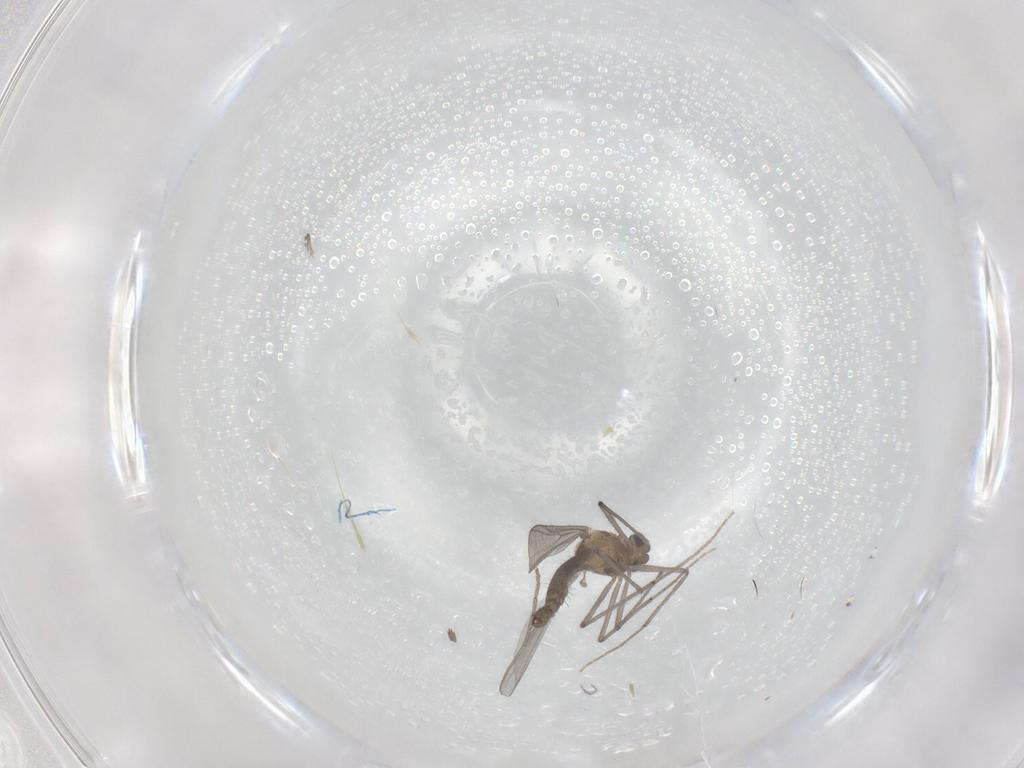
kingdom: Animalia
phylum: Arthropoda
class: Insecta
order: Diptera
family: Phoridae
